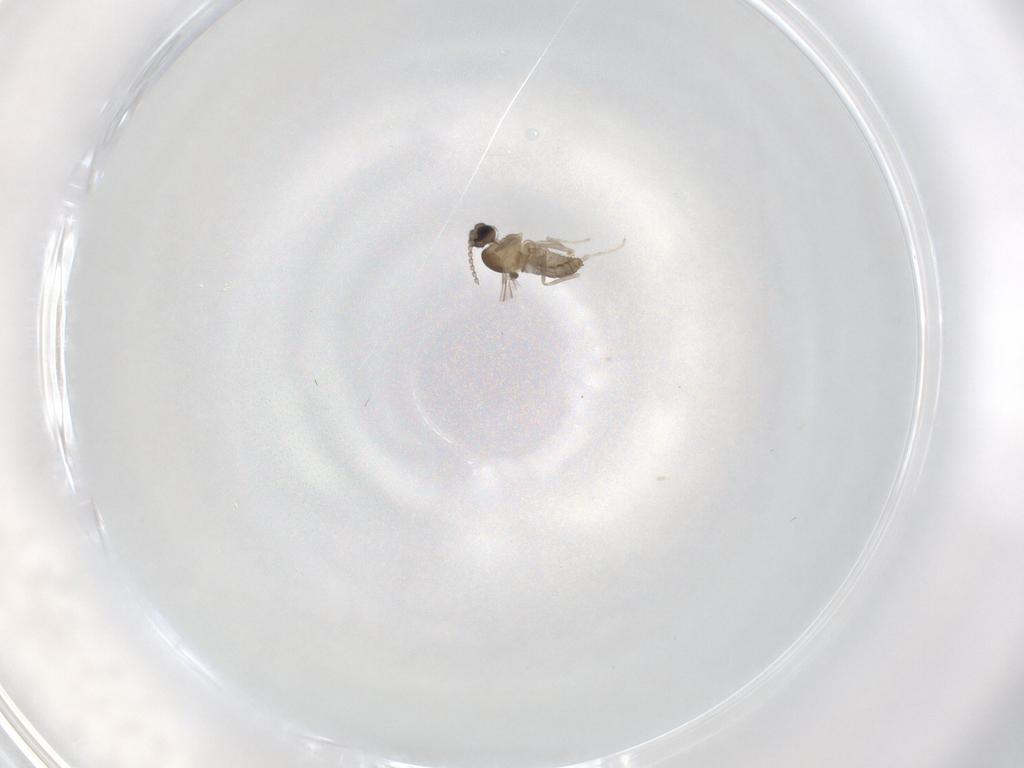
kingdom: Animalia
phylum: Arthropoda
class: Insecta
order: Diptera
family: Cecidomyiidae
